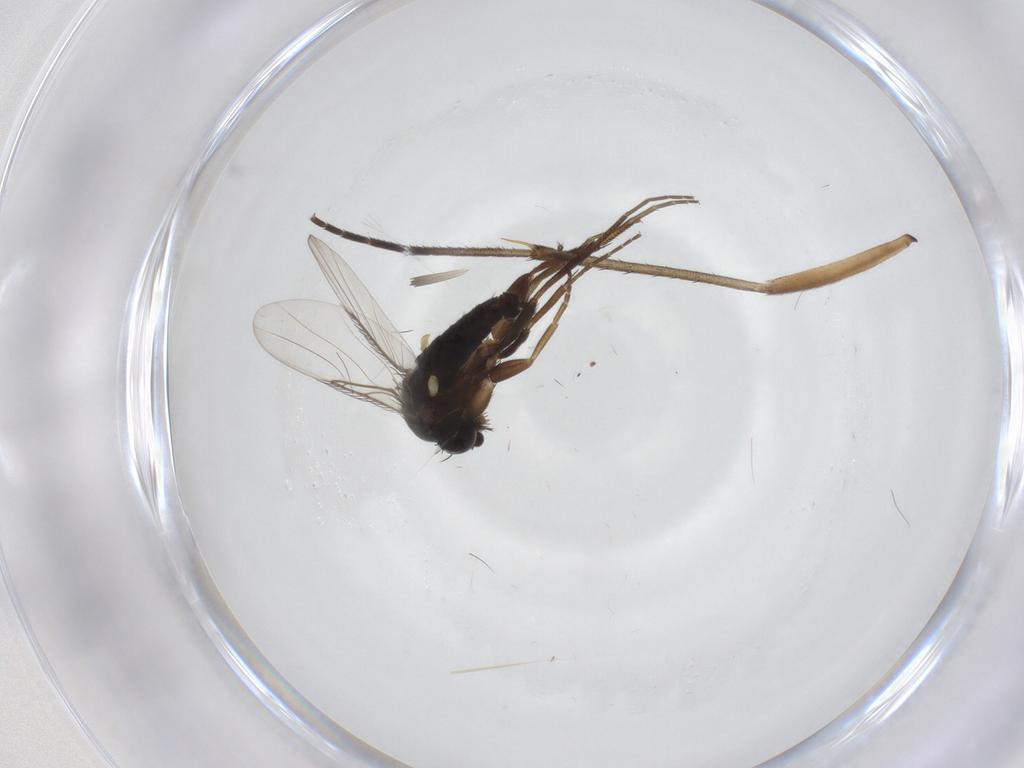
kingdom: Animalia
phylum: Arthropoda
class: Insecta
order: Diptera
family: Phoridae
